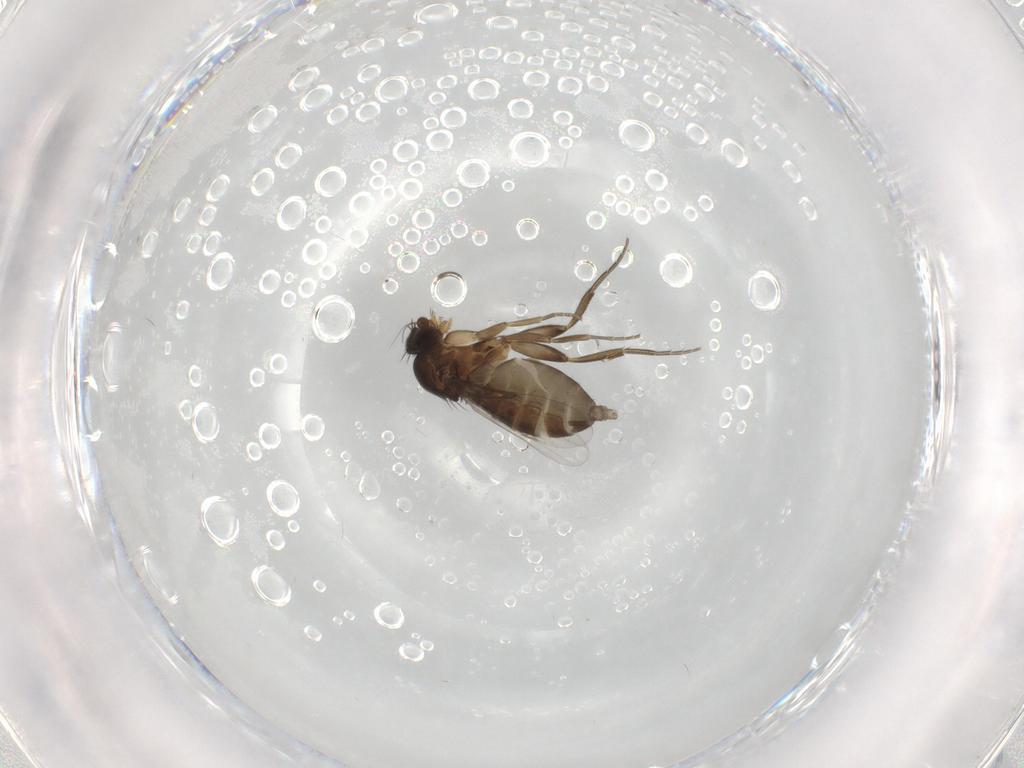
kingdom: Animalia
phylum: Arthropoda
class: Insecta
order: Diptera
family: Phoridae
